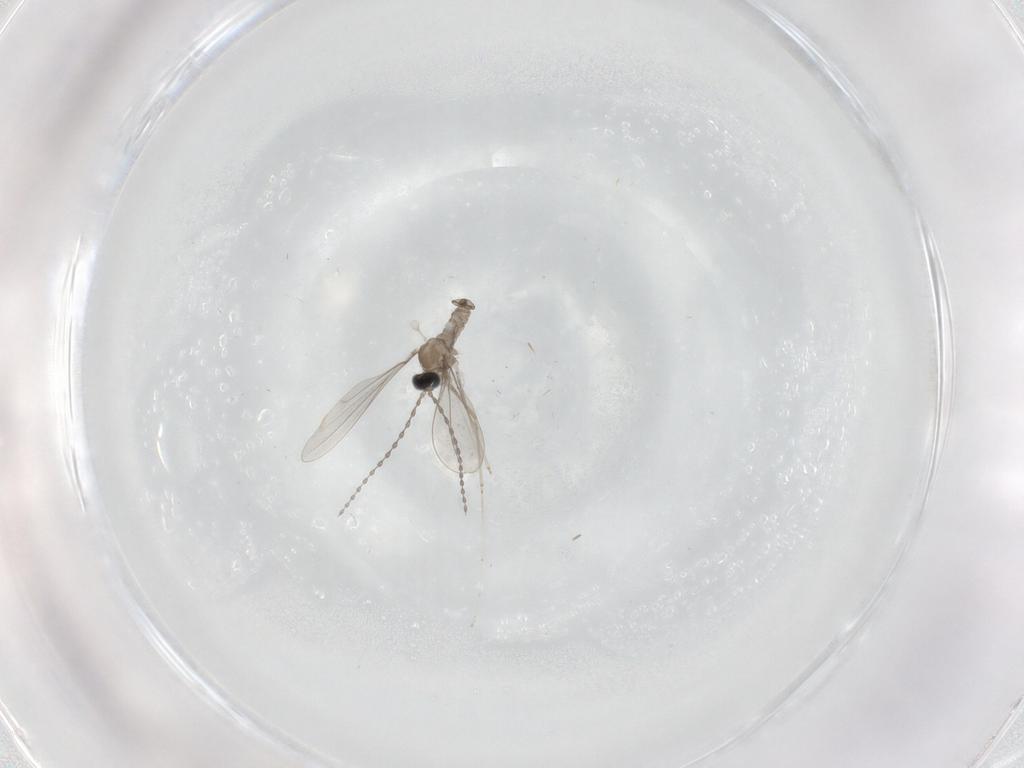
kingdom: Animalia
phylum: Arthropoda
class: Insecta
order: Diptera
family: Cecidomyiidae
